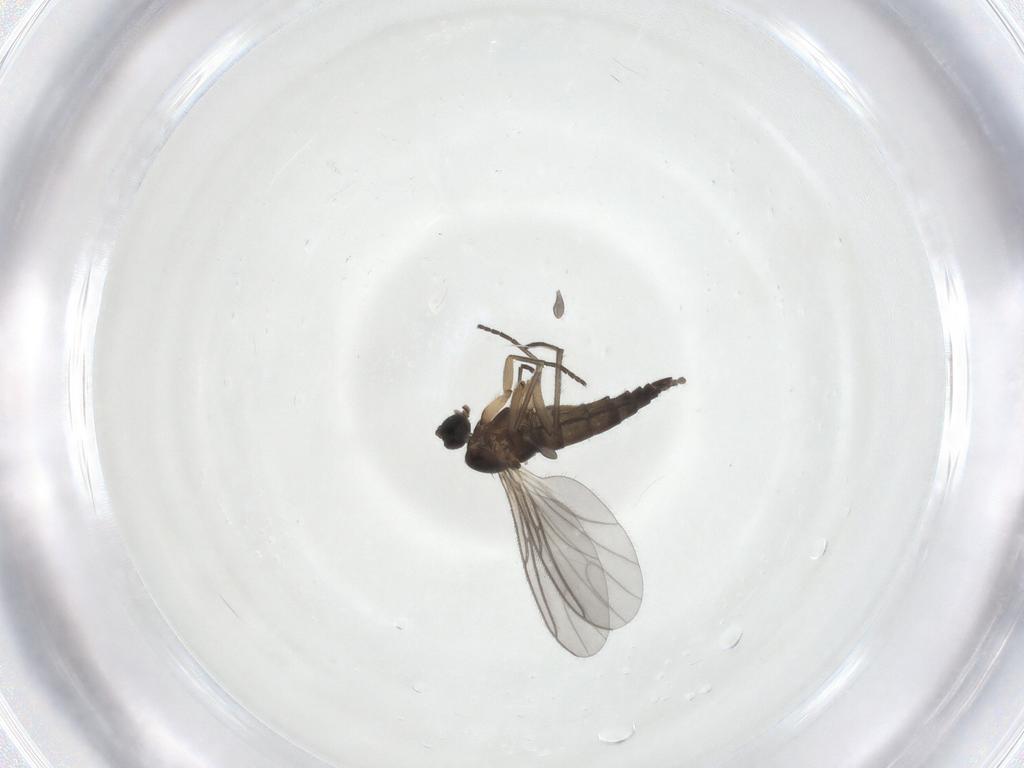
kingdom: Animalia
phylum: Arthropoda
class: Insecta
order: Diptera
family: Sciaridae
